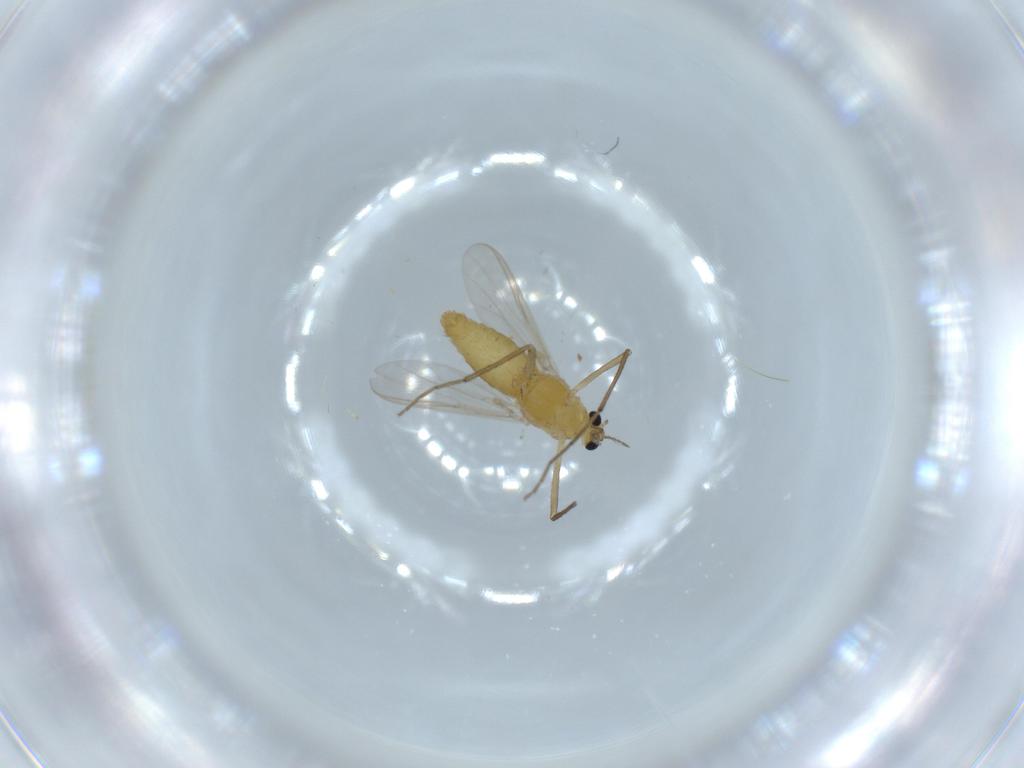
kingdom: Animalia
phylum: Arthropoda
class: Insecta
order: Diptera
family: Chironomidae
